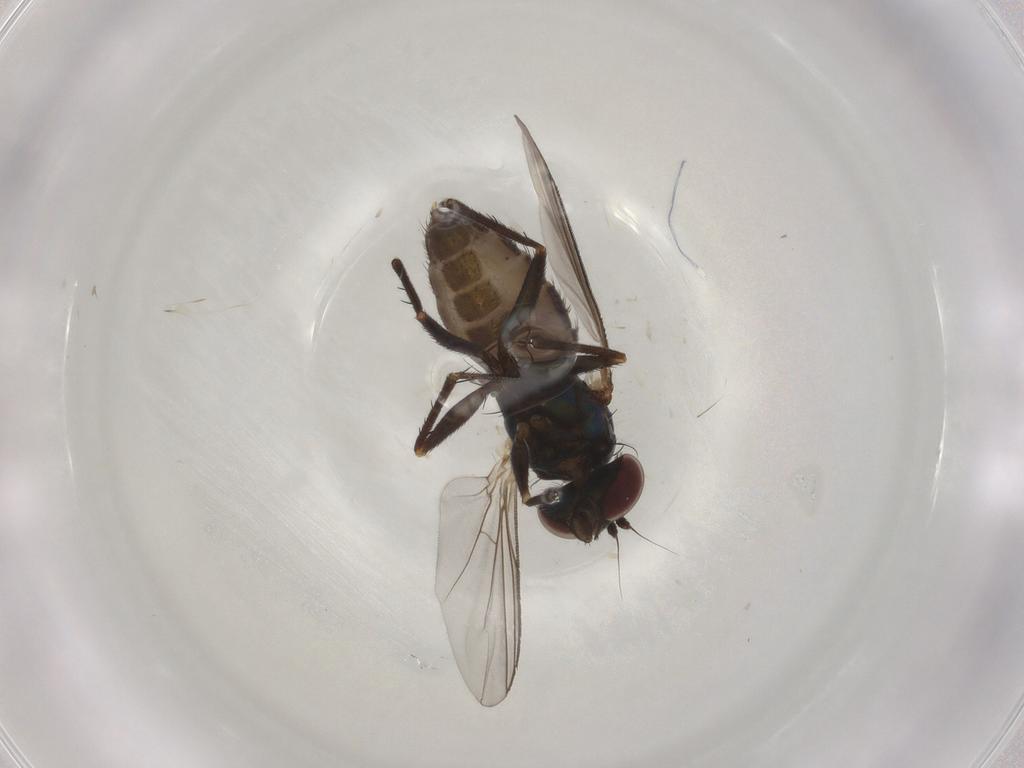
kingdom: Animalia
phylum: Arthropoda
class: Insecta
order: Diptera
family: Dolichopodidae
